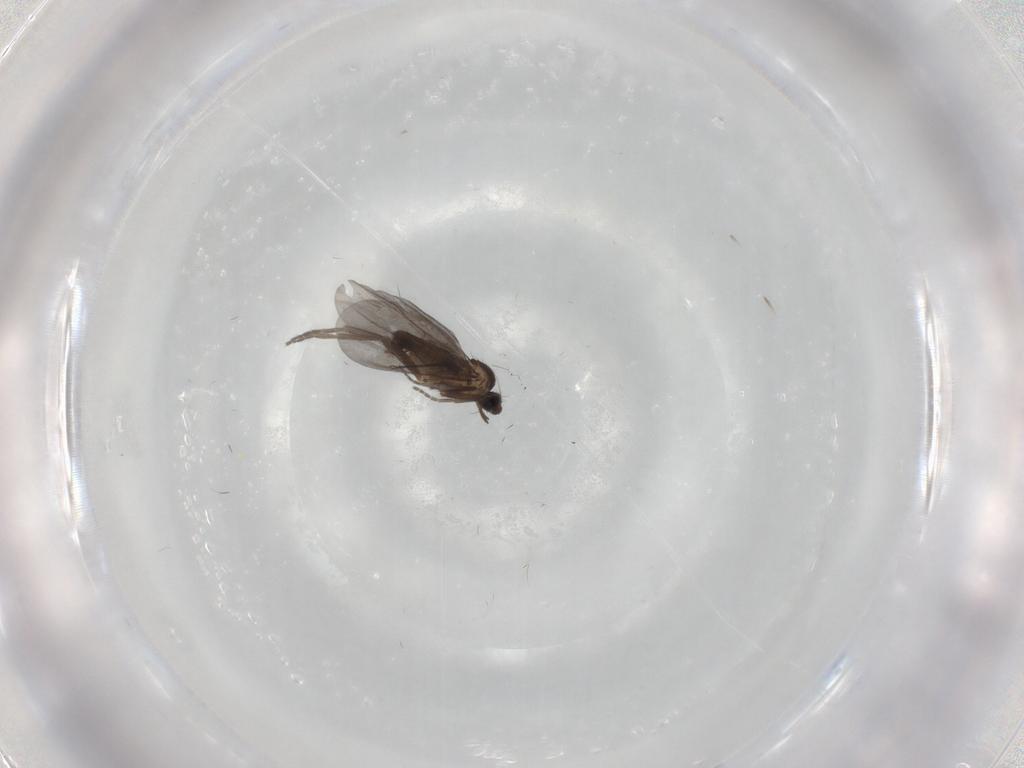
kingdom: Animalia
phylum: Arthropoda
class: Insecta
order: Diptera
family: Phoridae
